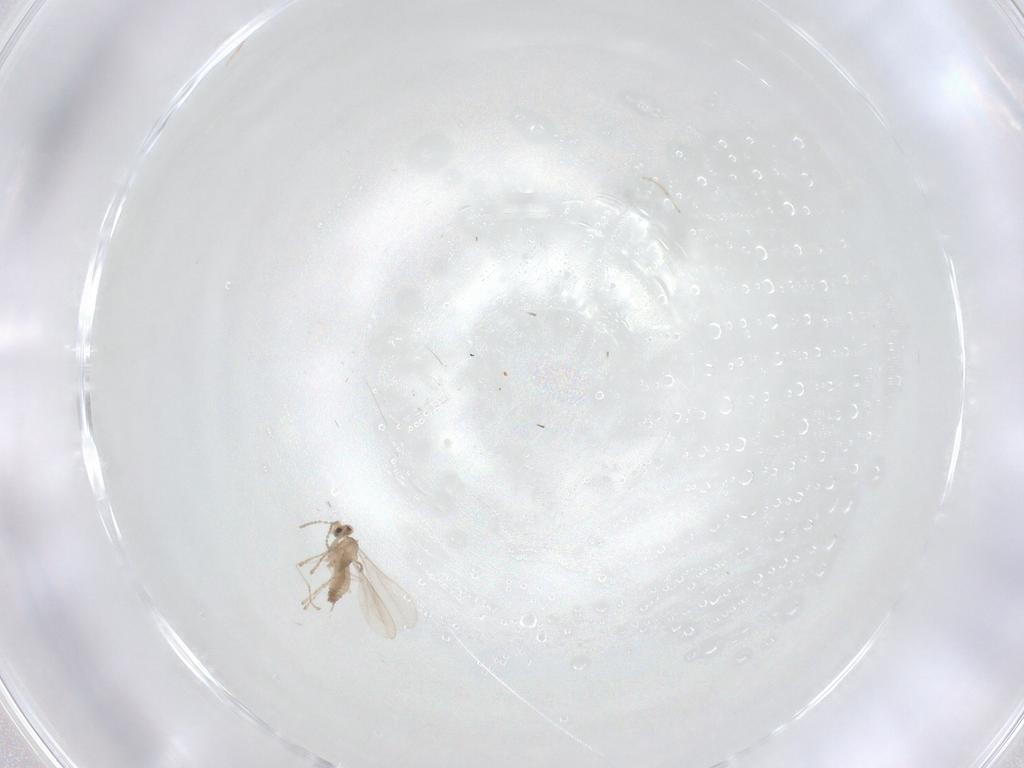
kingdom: Animalia
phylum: Arthropoda
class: Insecta
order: Diptera
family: Cecidomyiidae
